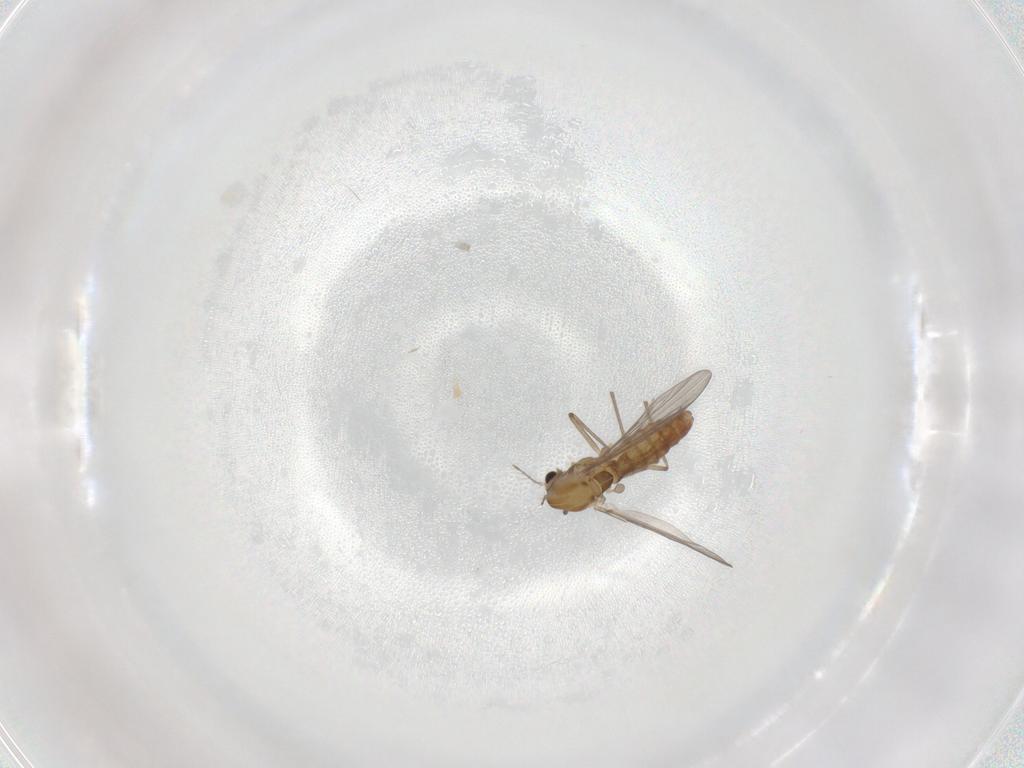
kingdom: Animalia
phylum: Arthropoda
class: Insecta
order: Diptera
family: Chironomidae
